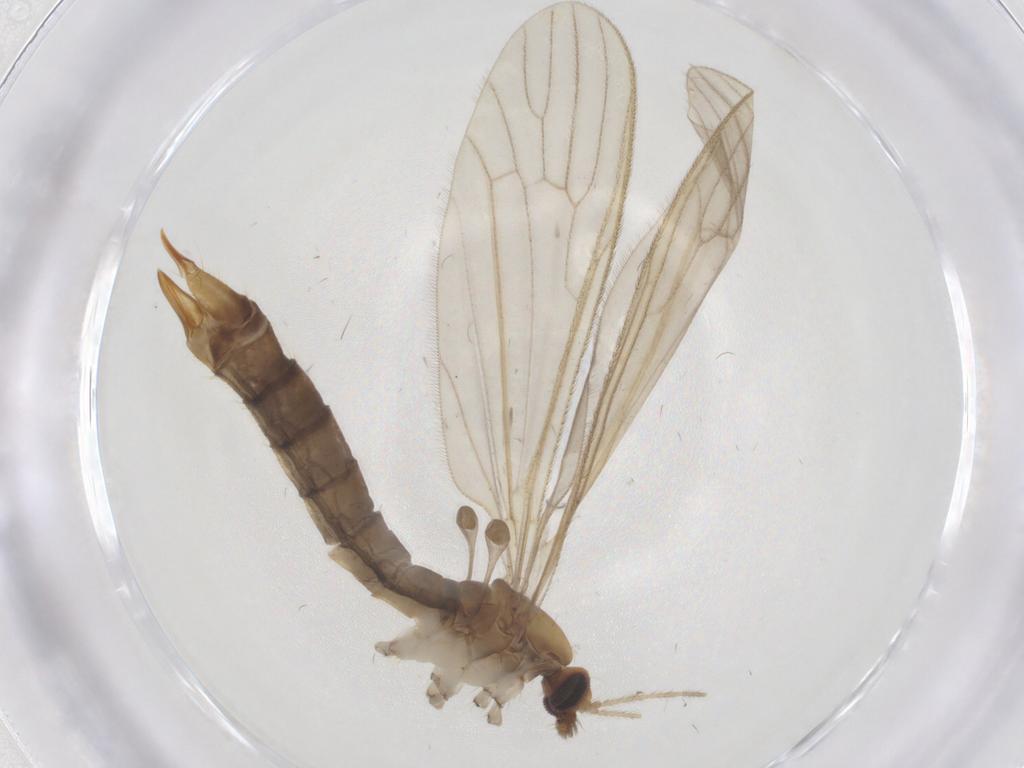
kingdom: Animalia
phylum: Arthropoda
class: Insecta
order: Diptera
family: Limoniidae
